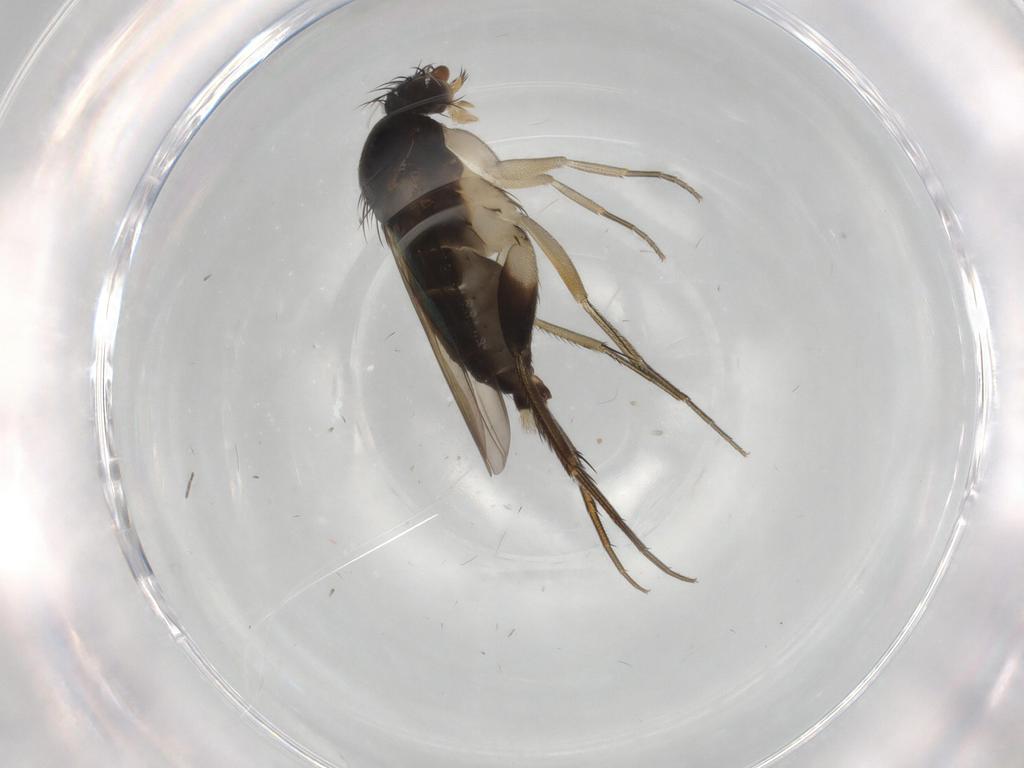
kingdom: Animalia
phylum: Arthropoda
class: Insecta
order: Diptera
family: Phoridae
